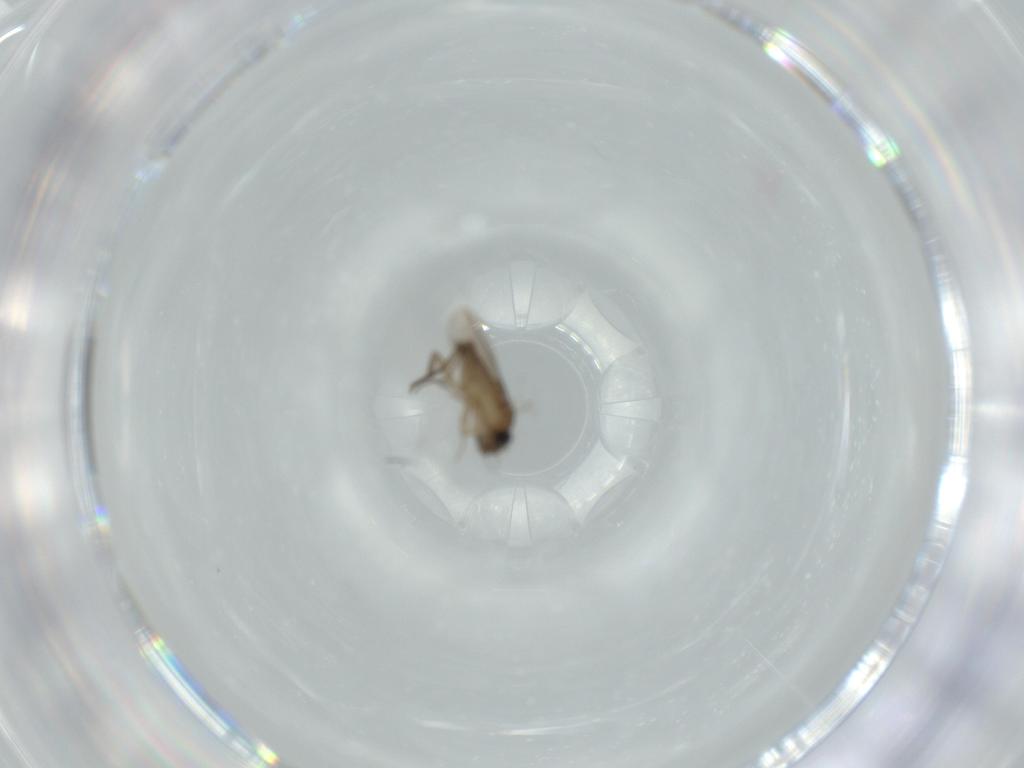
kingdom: Animalia
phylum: Arthropoda
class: Insecta
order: Diptera
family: Phoridae
